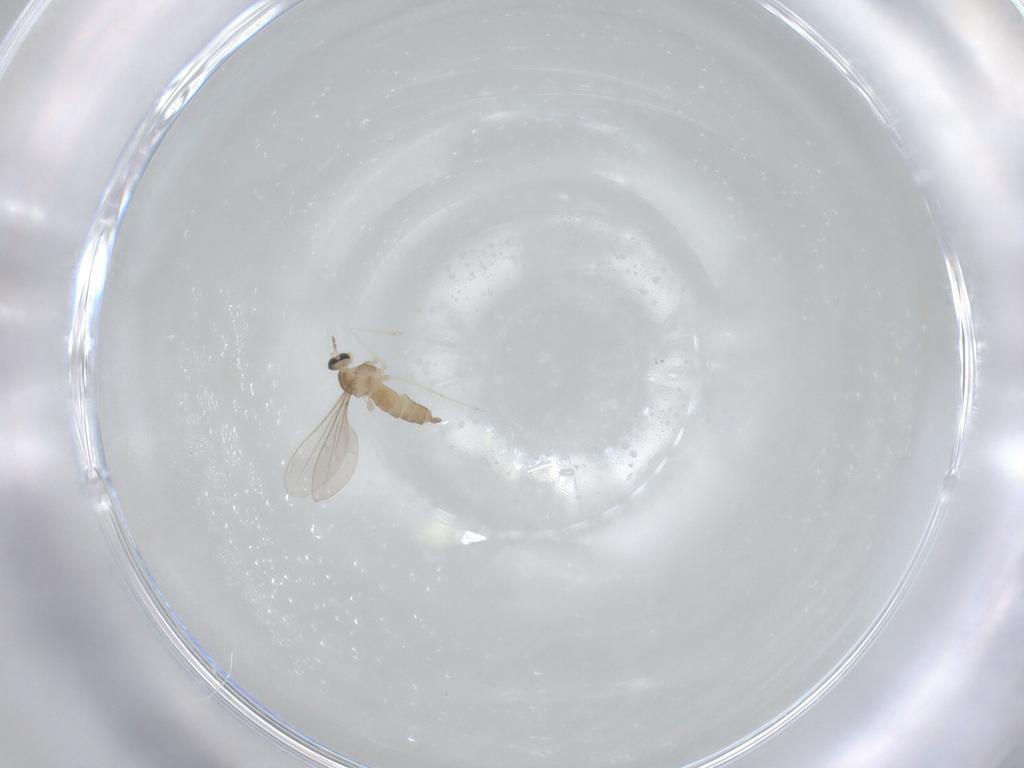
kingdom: Animalia
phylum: Arthropoda
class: Insecta
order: Diptera
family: Cecidomyiidae
